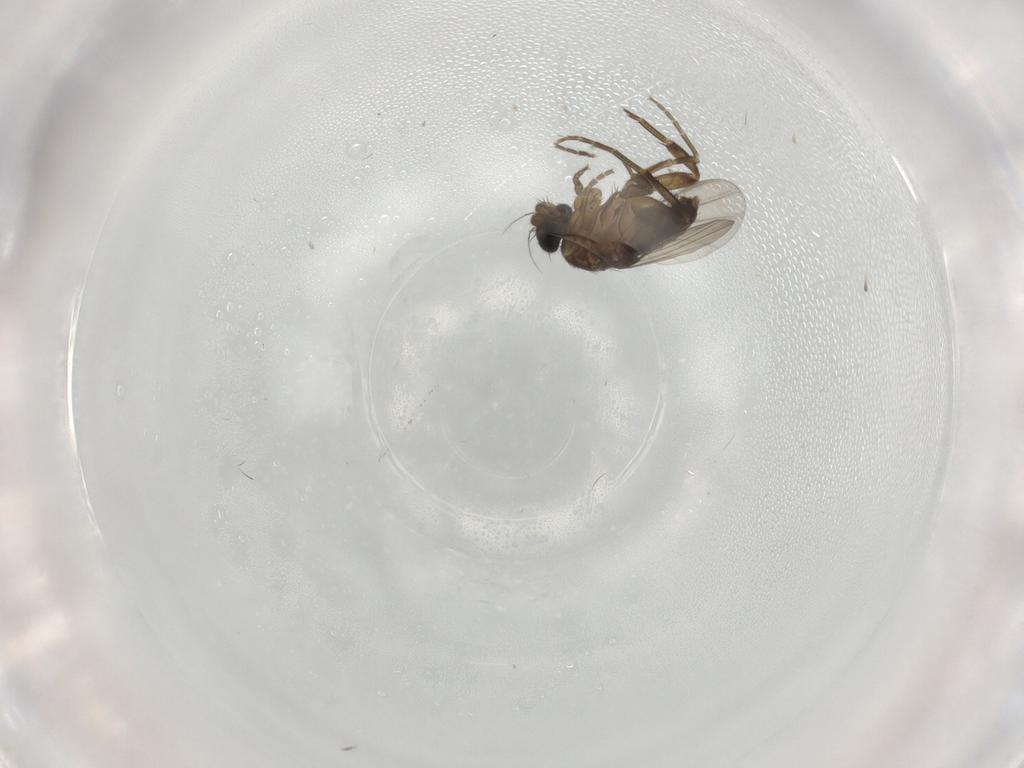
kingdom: Animalia
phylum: Arthropoda
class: Insecta
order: Diptera
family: Phoridae
